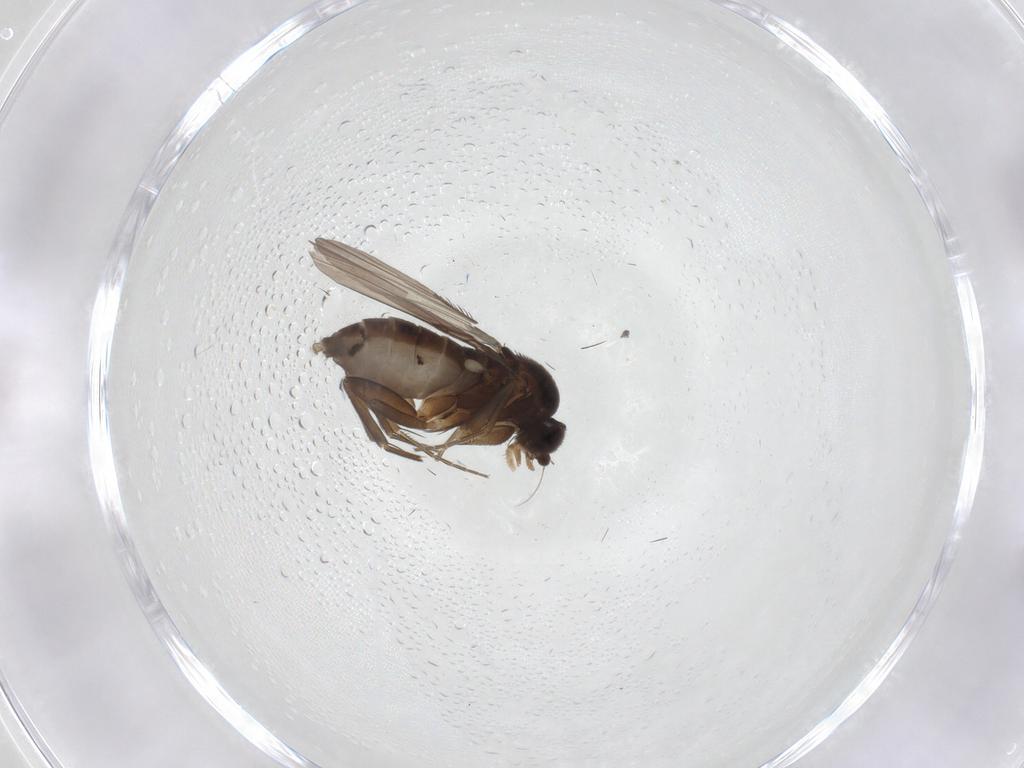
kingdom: Animalia
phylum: Arthropoda
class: Insecta
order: Diptera
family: Phoridae
